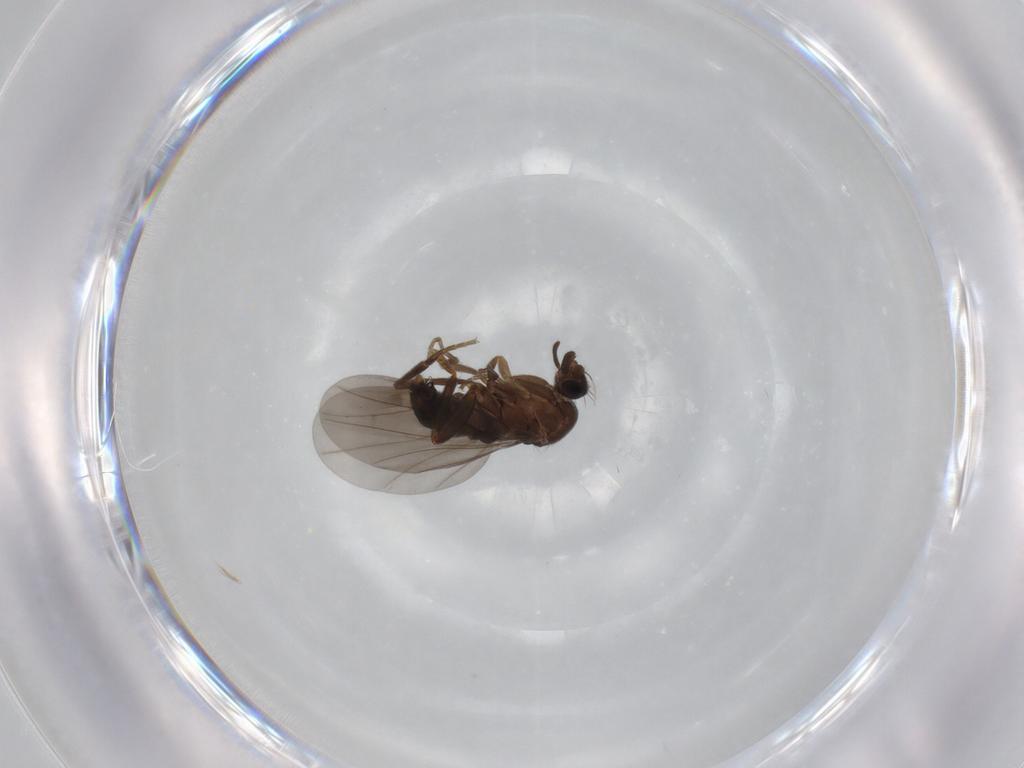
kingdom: Animalia
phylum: Arthropoda
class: Insecta
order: Diptera
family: Phoridae
